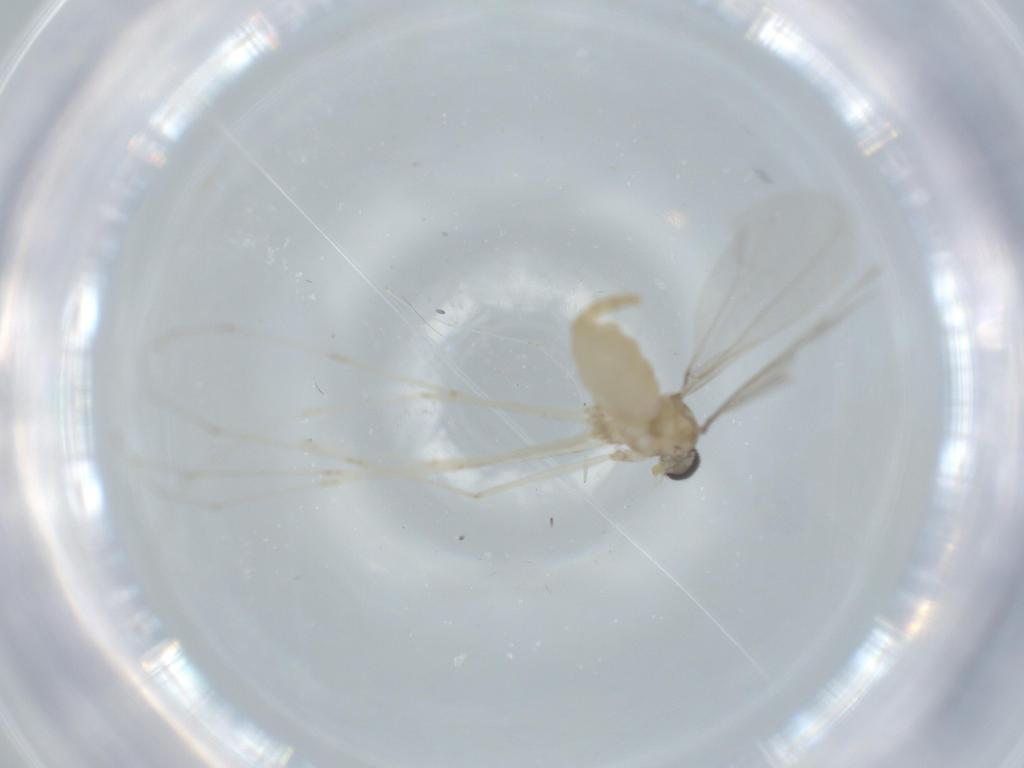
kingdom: Animalia
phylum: Arthropoda
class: Insecta
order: Diptera
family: Cecidomyiidae
